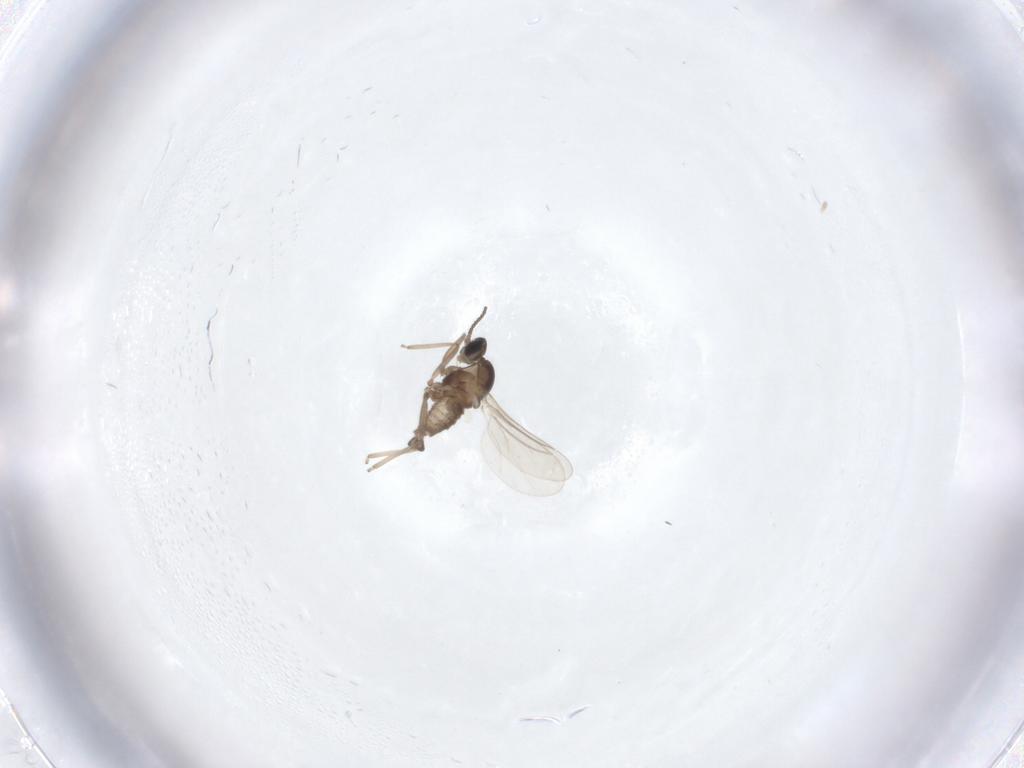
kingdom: Animalia
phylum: Arthropoda
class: Insecta
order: Diptera
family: Cecidomyiidae
